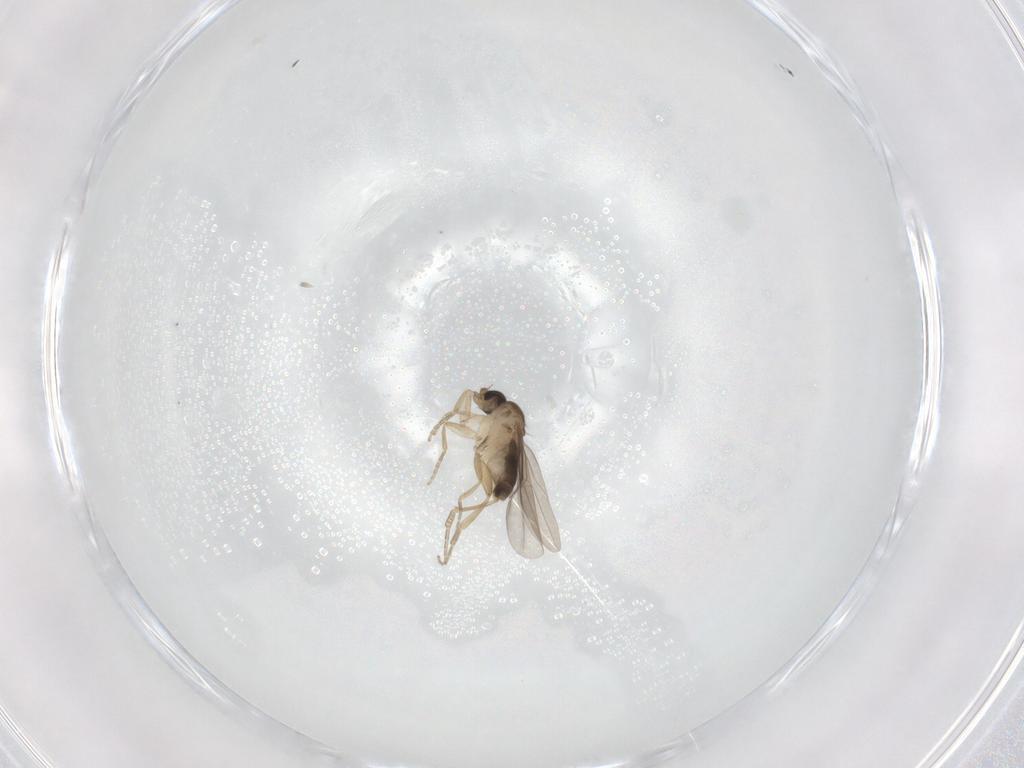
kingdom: Animalia
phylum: Arthropoda
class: Insecta
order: Diptera
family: Phoridae
